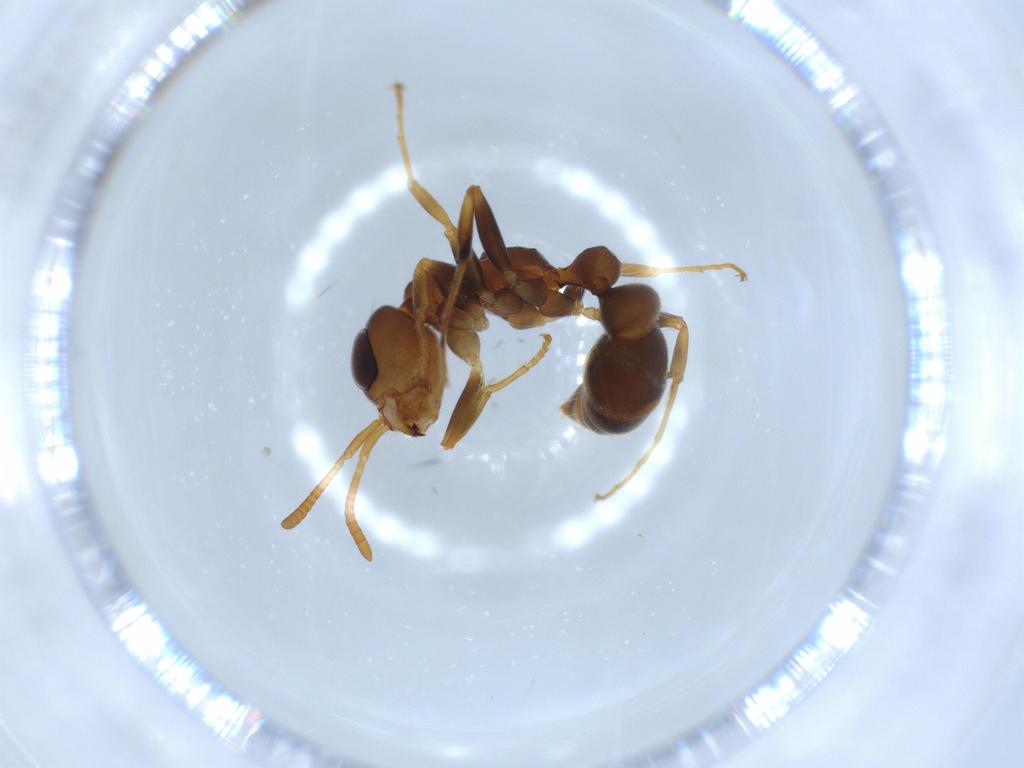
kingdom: Animalia
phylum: Arthropoda
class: Insecta
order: Hymenoptera
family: Formicidae
